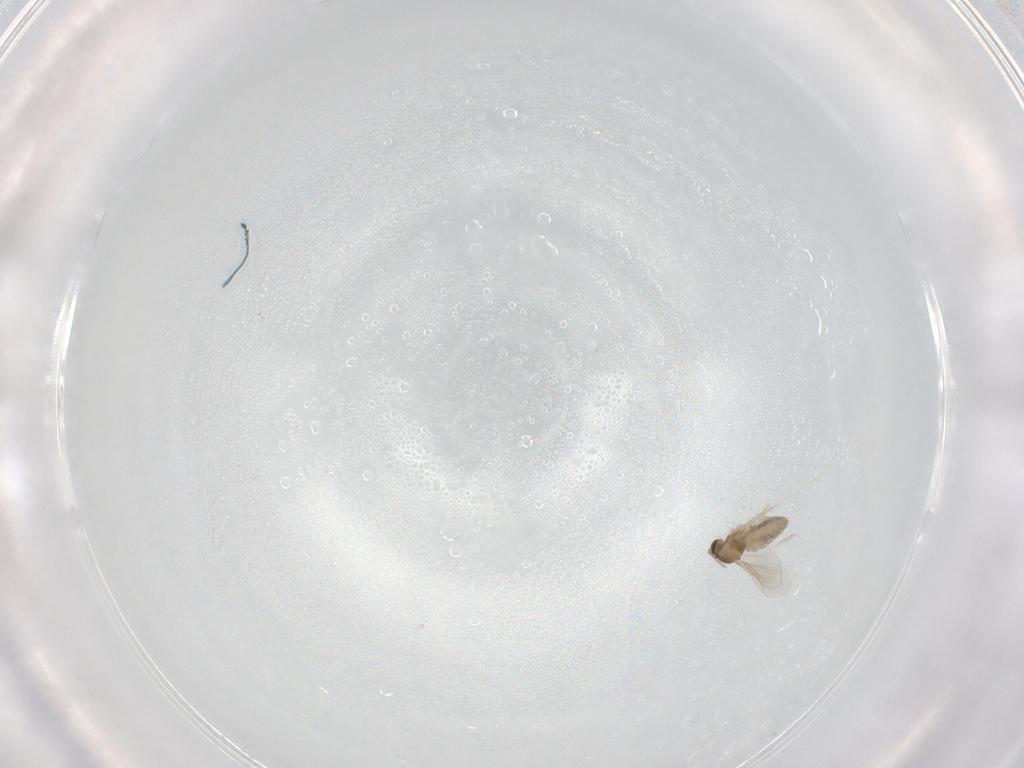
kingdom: Animalia
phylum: Arthropoda
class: Insecta
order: Diptera
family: Cecidomyiidae
